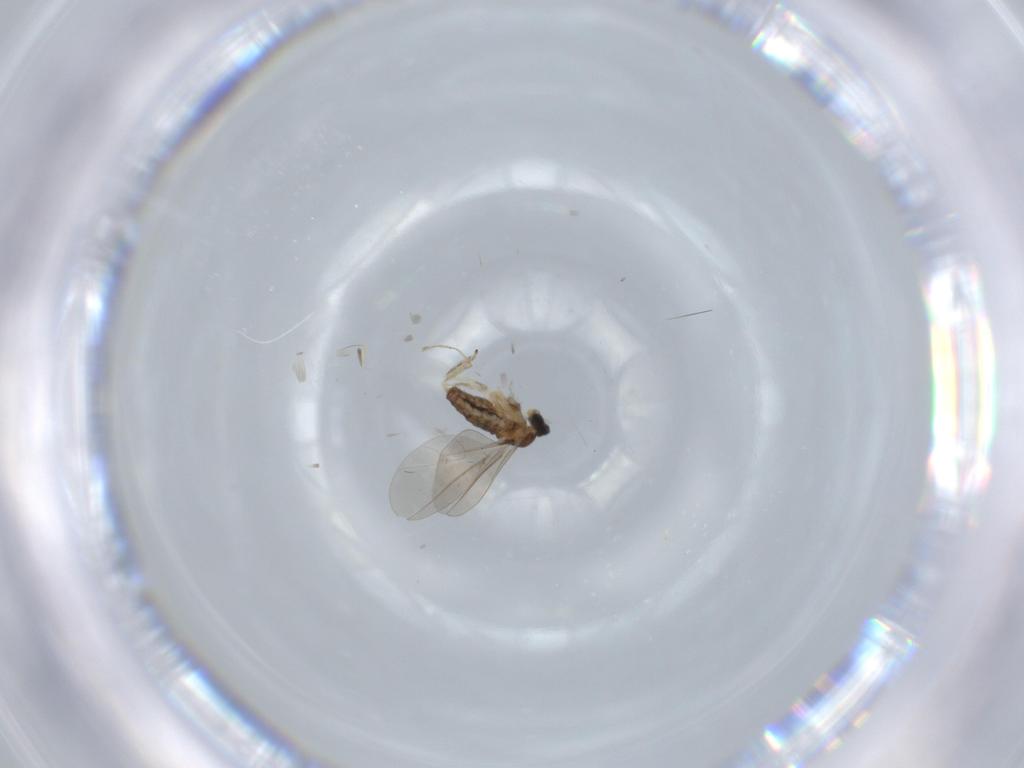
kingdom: Animalia
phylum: Arthropoda
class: Insecta
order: Diptera
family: Cecidomyiidae
